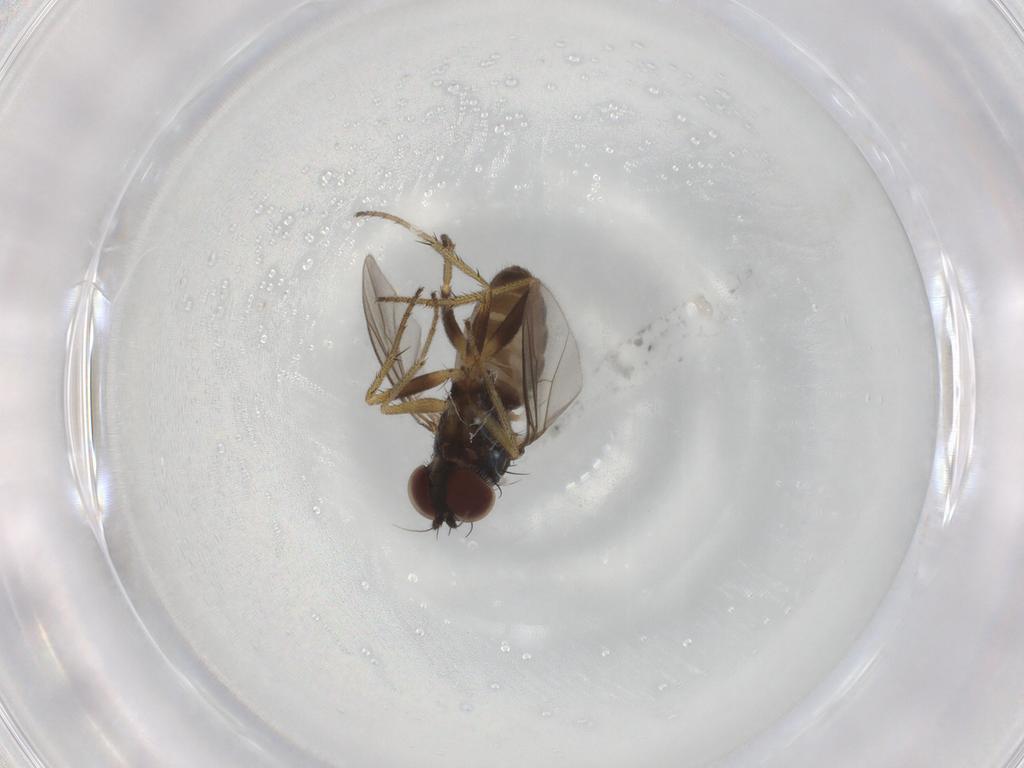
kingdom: Animalia
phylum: Arthropoda
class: Insecta
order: Diptera
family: Dolichopodidae
